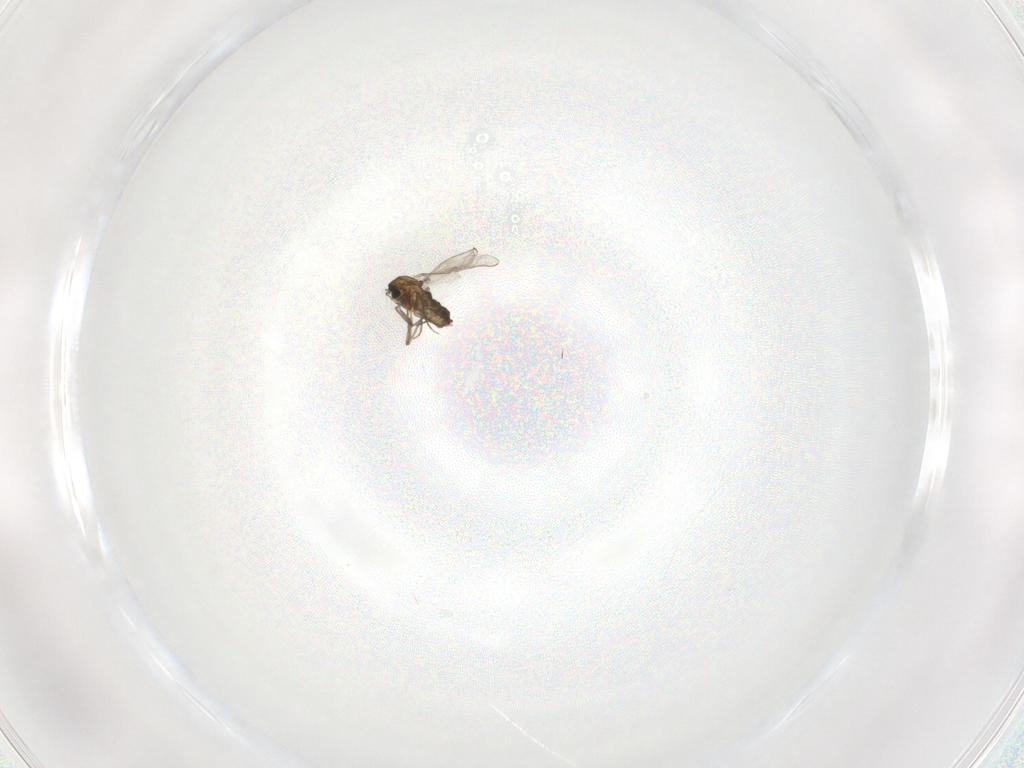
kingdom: Animalia
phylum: Arthropoda
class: Insecta
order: Diptera
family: Chironomidae
